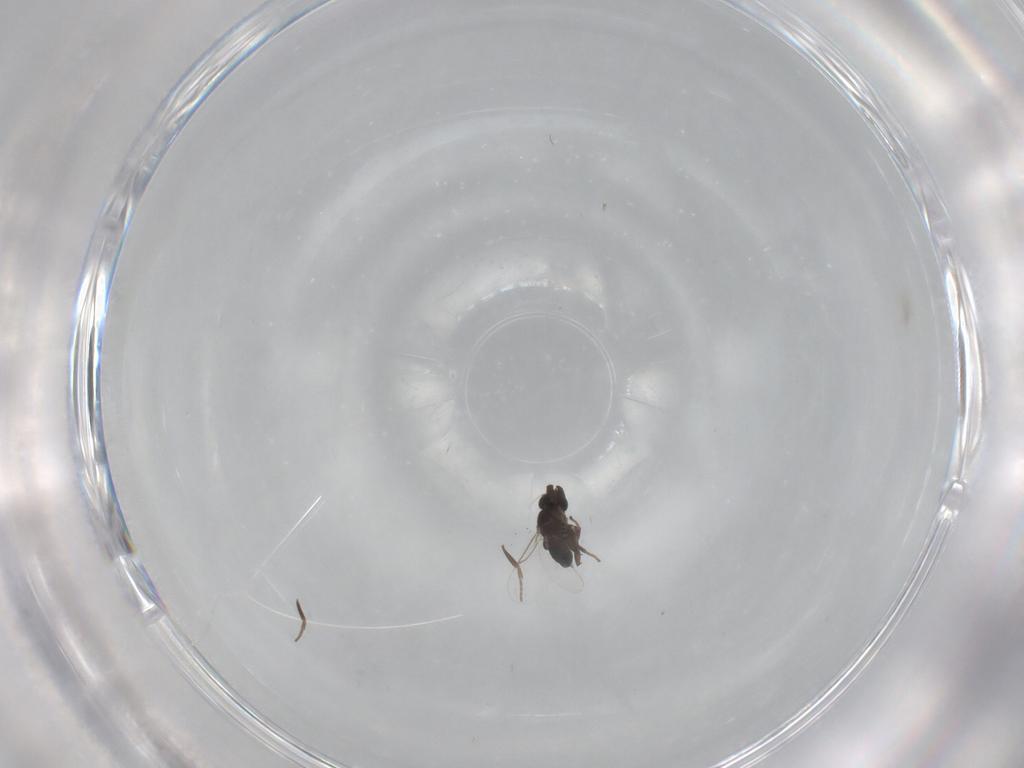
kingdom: Animalia
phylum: Arthropoda
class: Insecta
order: Diptera
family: Phoridae
